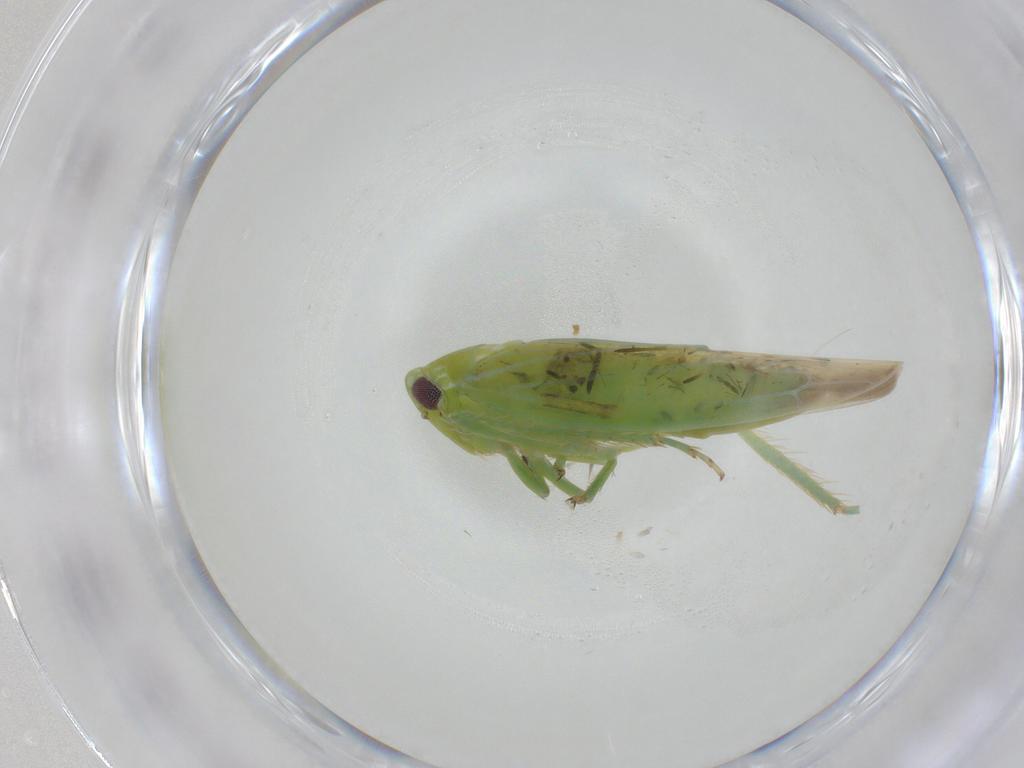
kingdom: Animalia
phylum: Arthropoda
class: Insecta
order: Hemiptera
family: Cicadellidae
